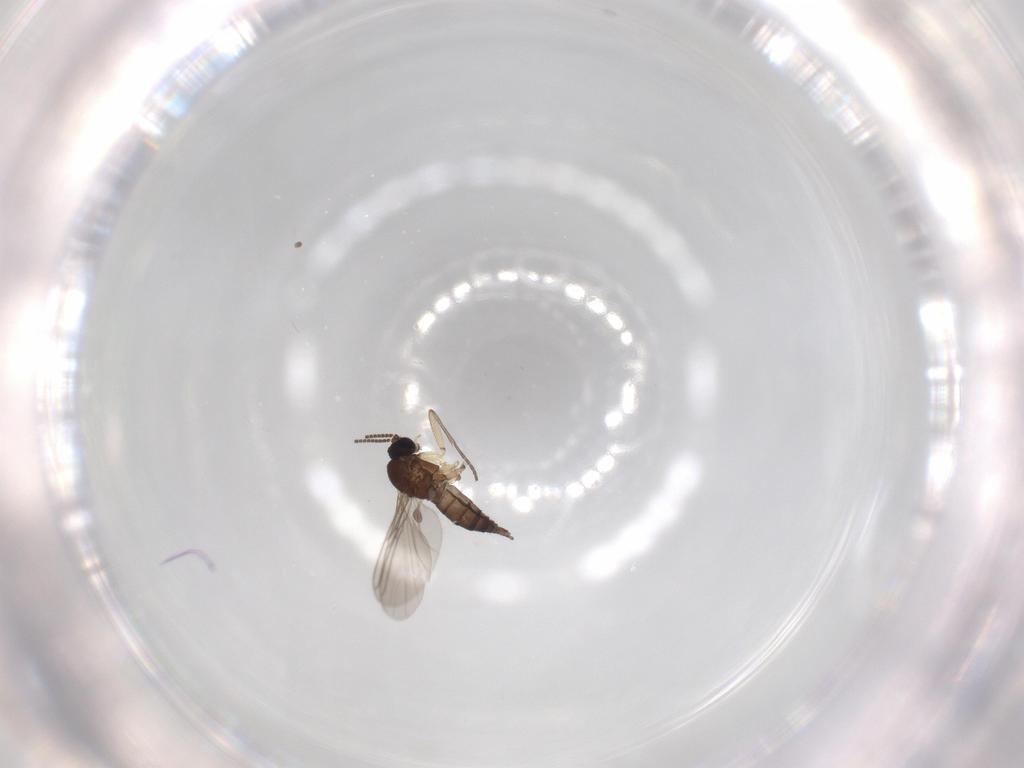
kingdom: Animalia
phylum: Arthropoda
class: Insecta
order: Diptera
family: Sciaridae
